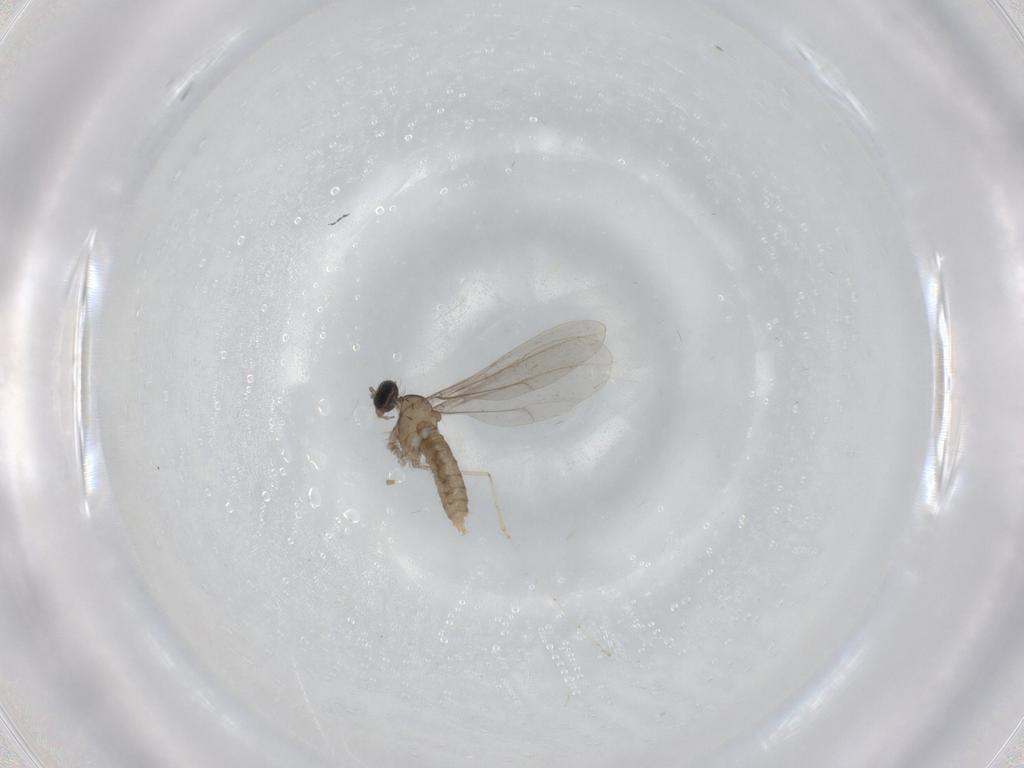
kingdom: Animalia
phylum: Arthropoda
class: Insecta
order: Diptera
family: Cecidomyiidae
